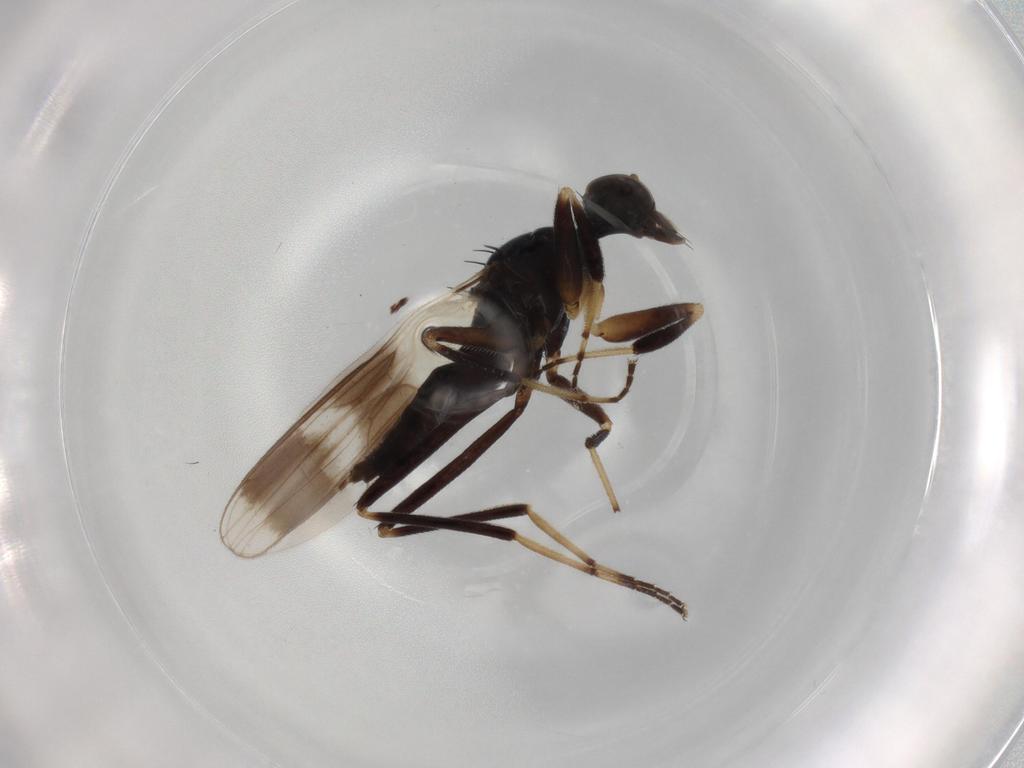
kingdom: Animalia
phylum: Arthropoda
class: Insecta
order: Diptera
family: Hybotidae
